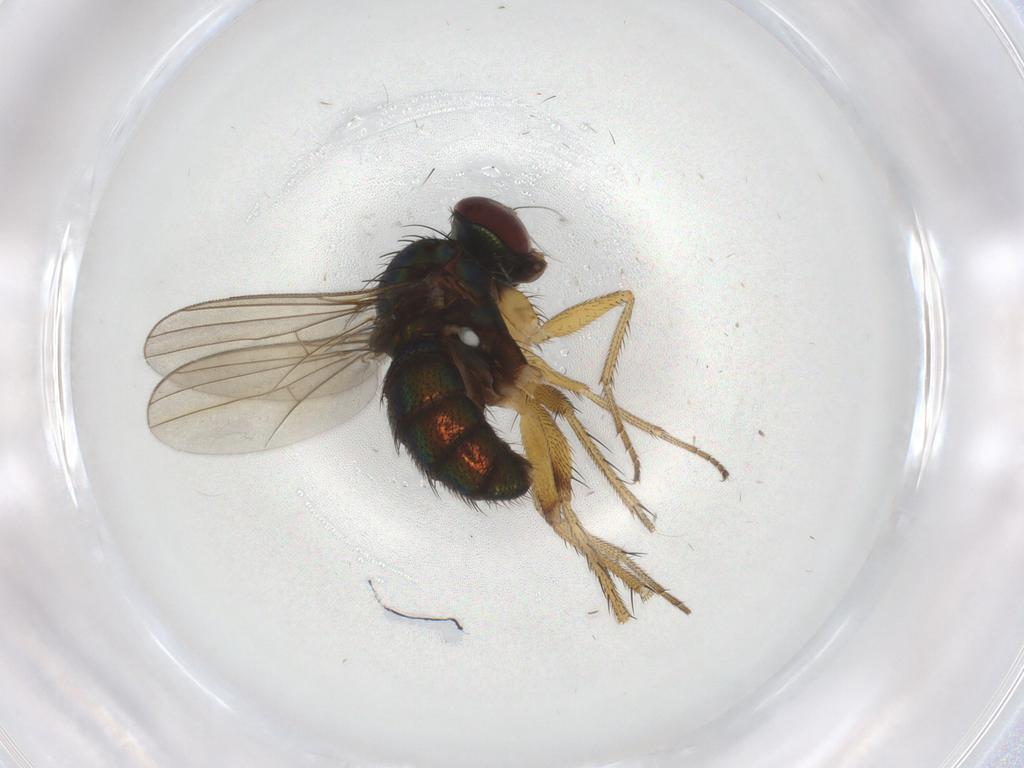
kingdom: Animalia
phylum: Arthropoda
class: Insecta
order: Diptera
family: Dolichopodidae
